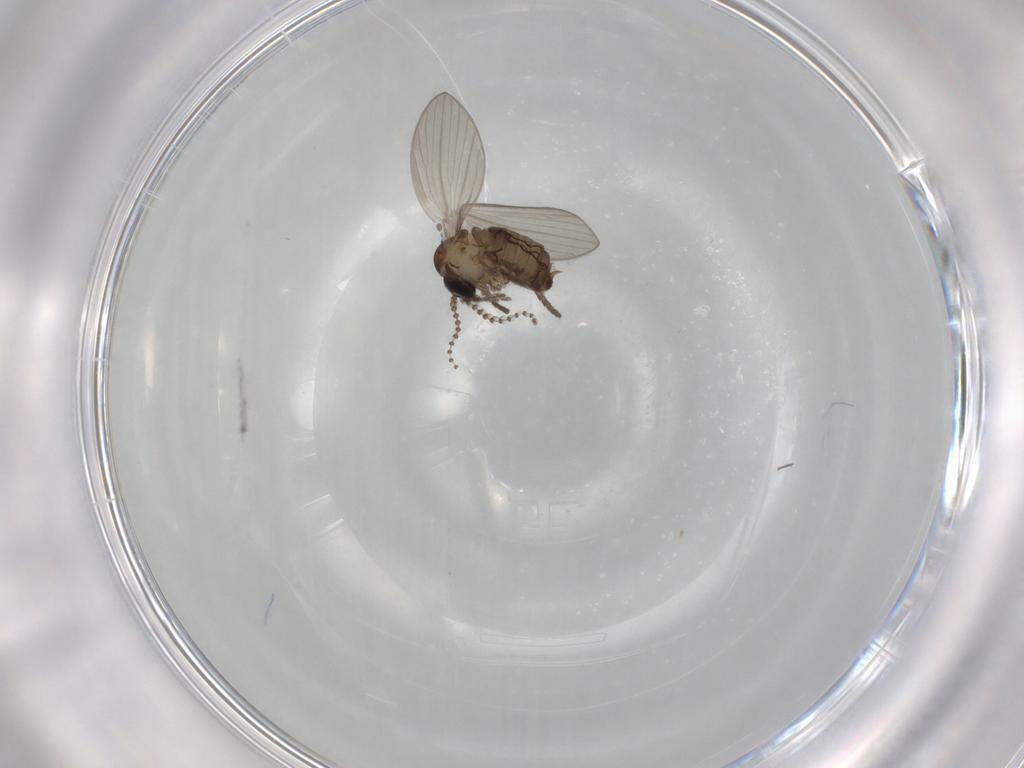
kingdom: Animalia
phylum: Arthropoda
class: Insecta
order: Diptera
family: Psychodidae
